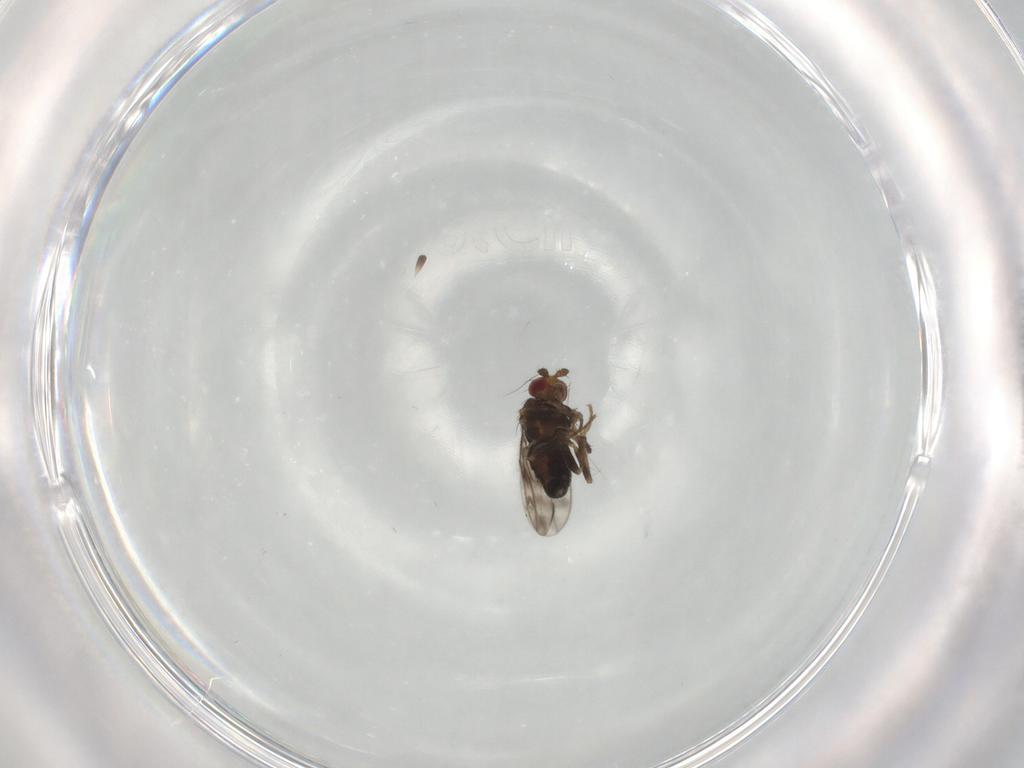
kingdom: Animalia
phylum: Arthropoda
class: Insecta
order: Diptera
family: Sphaeroceridae
